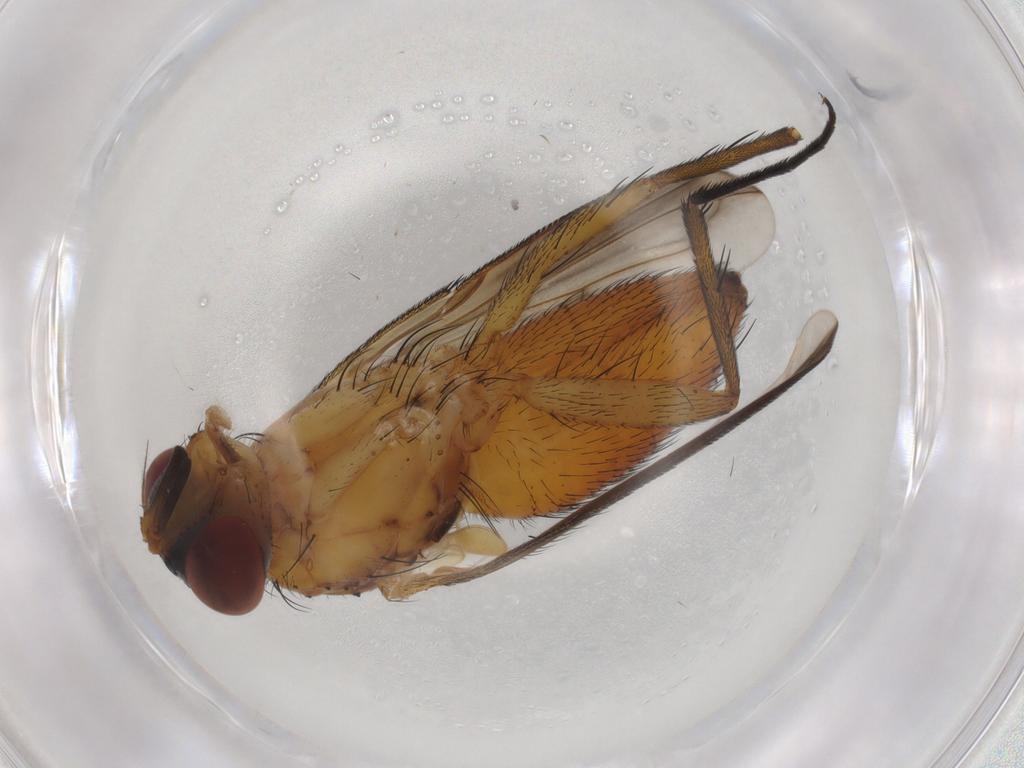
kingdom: Animalia
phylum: Arthropoda
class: Insecta
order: Diptera
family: Tachinidae
